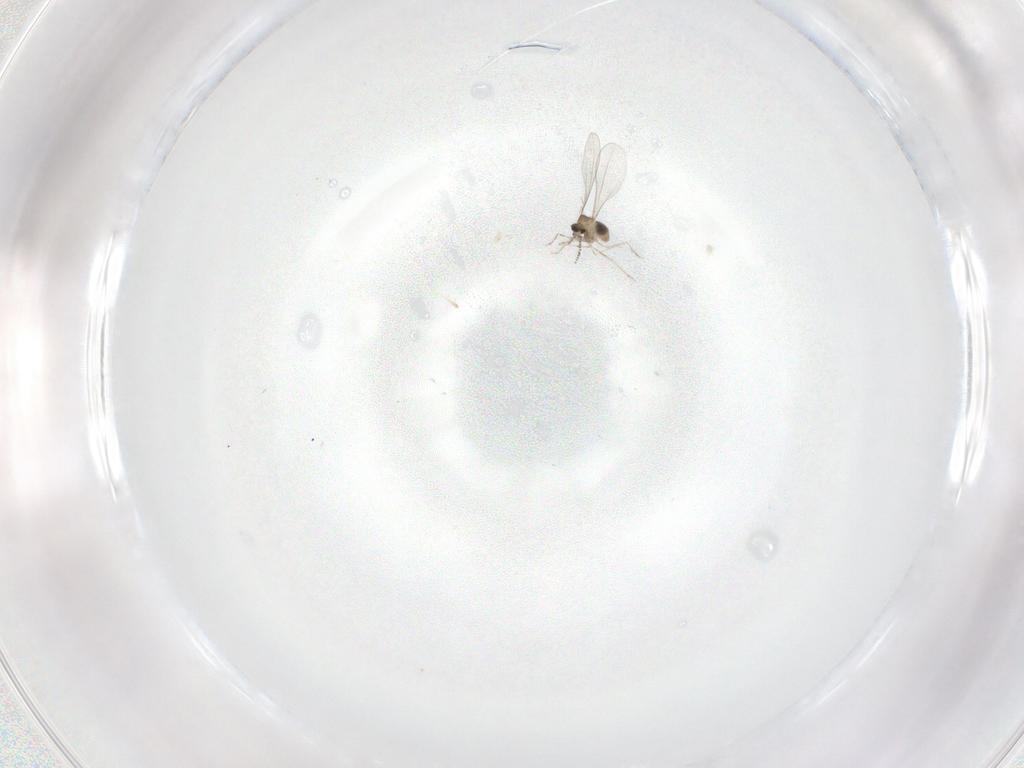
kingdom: Animalia
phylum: Arthropoda
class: Insecta
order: Diptera
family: Cecidomyiidae
